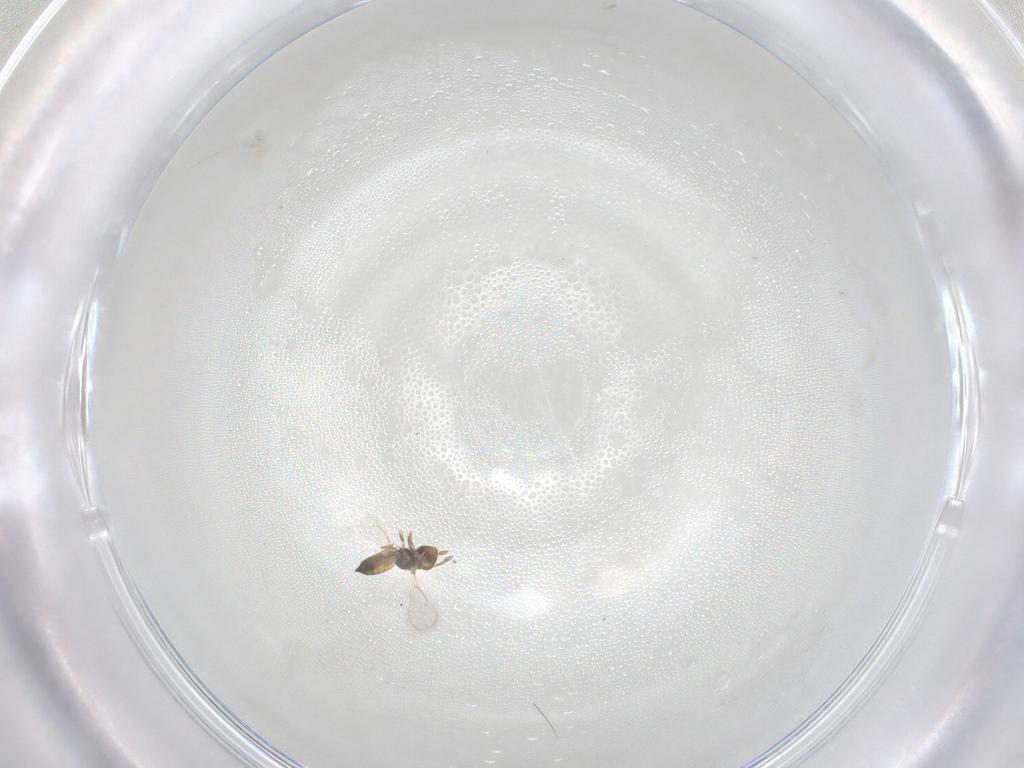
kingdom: Animalia
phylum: Arthropoda
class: Insecta
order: Hymenoptera
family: Eulophidae
